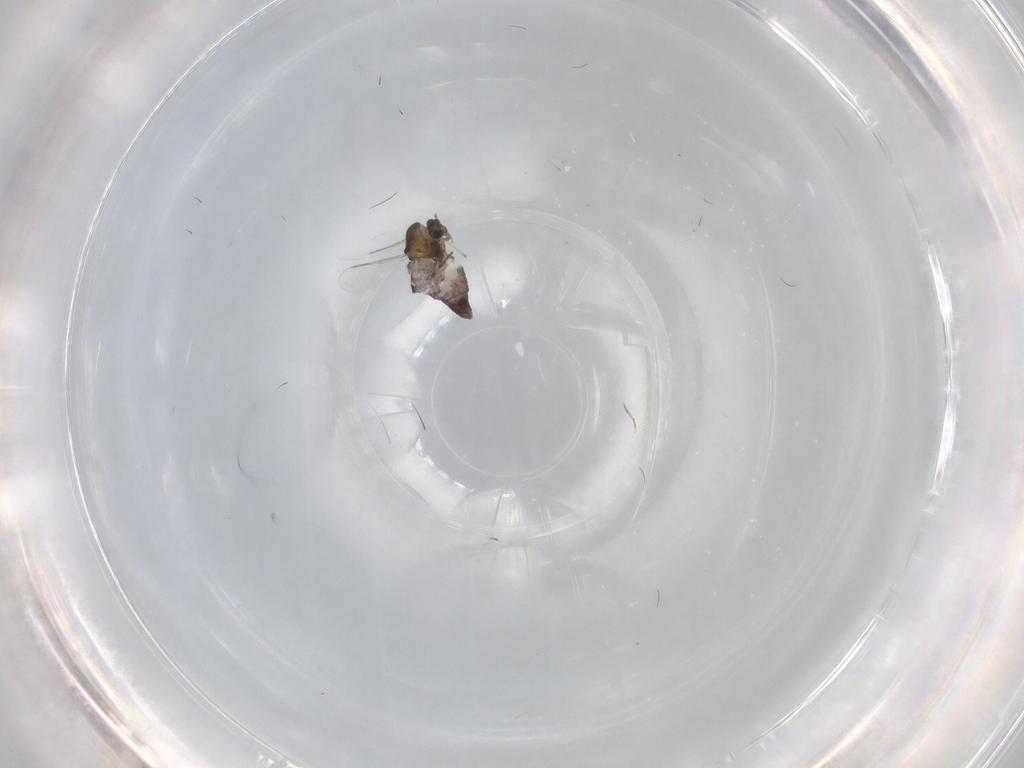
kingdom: Animalia
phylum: Arthropoda
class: Insecta
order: Diptera
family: Chironomidae
